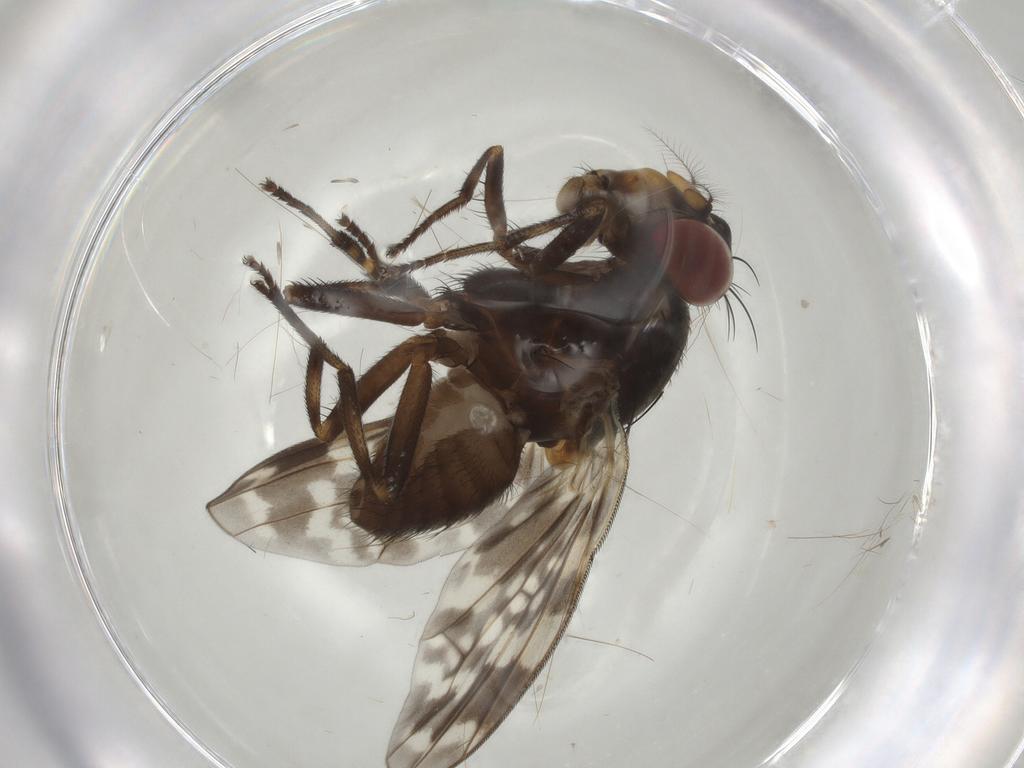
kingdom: Animalia
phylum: Arthropoda
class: Insecta
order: Diptera
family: Lauxaniidae
